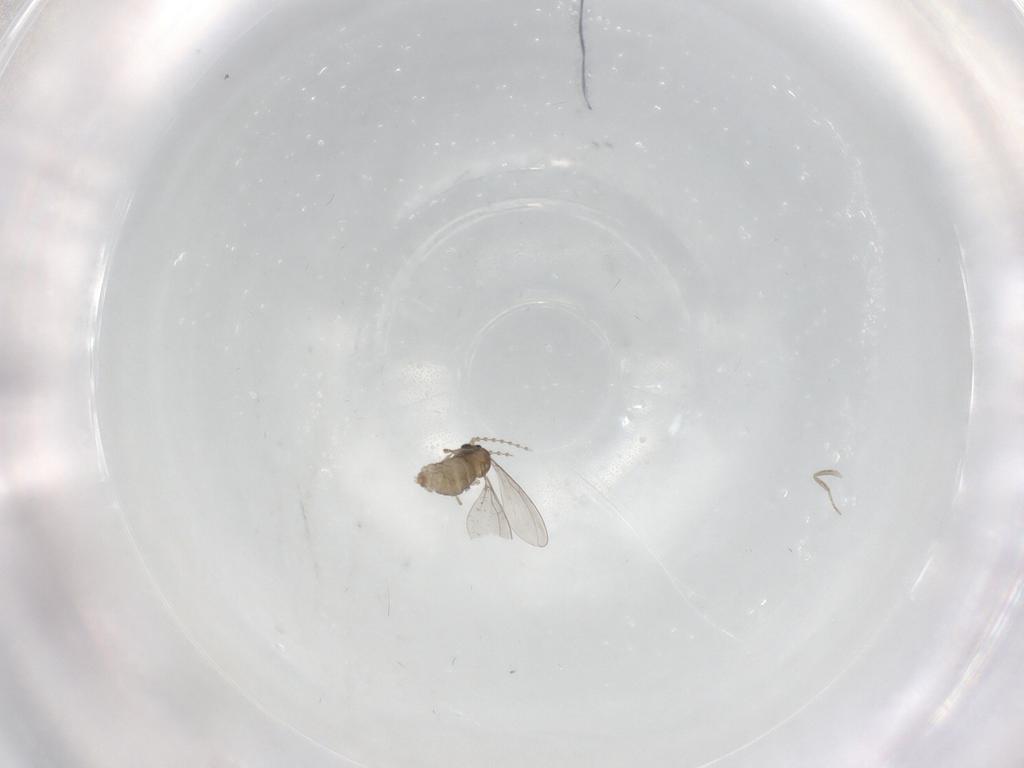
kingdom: Animalia
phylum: Arthropoda
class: Insecta
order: Diptera
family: Cecidomyiidae
